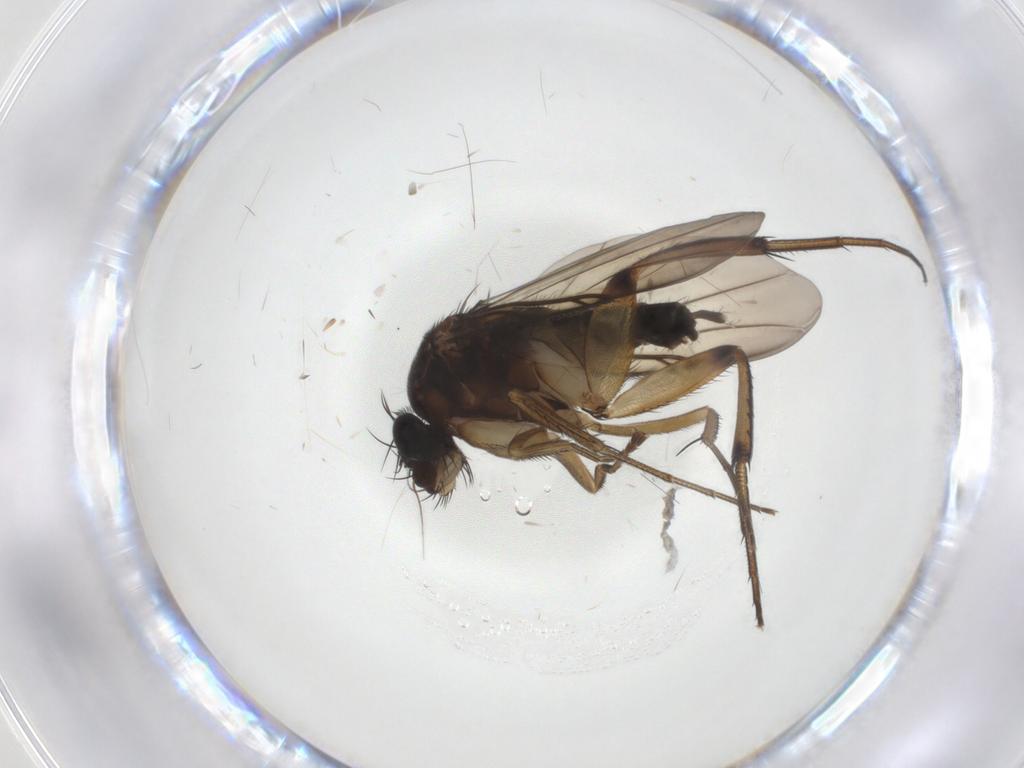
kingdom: Animalia
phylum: Arthropoda
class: Insecta
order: Diptera
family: Phoridae
